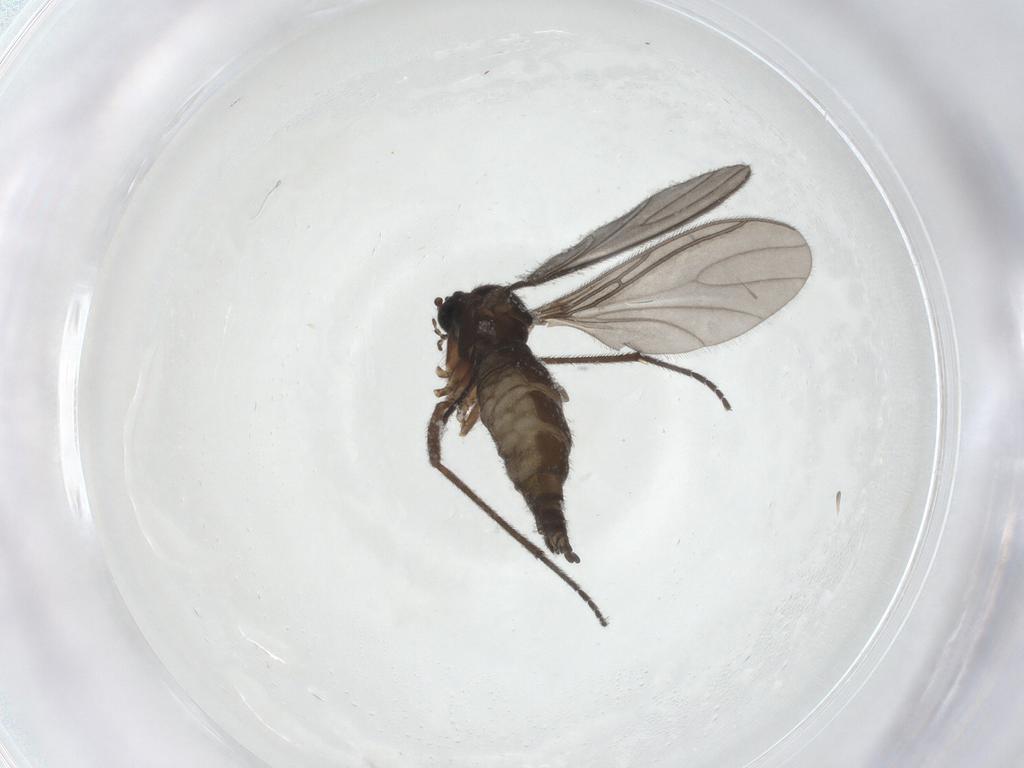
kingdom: Animalia
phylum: Arthropoda
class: Insecta
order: Diptera
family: Sciaridae
